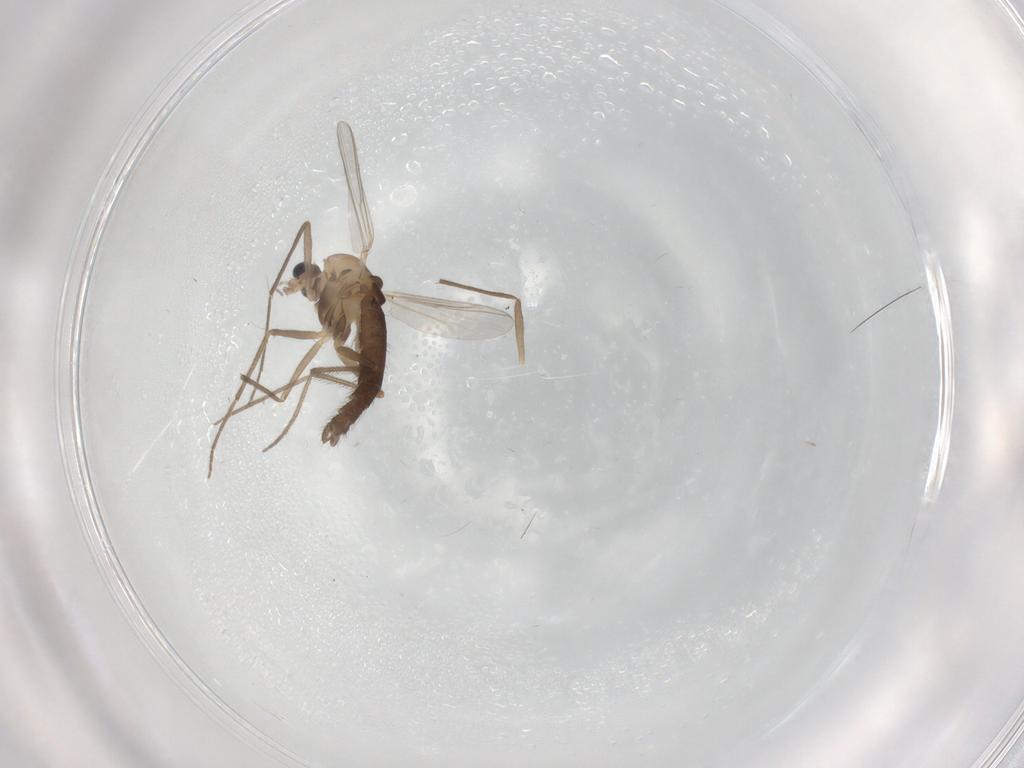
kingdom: Animalia
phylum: Arthropoda
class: Insecta
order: Diptera
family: Chironomidae
